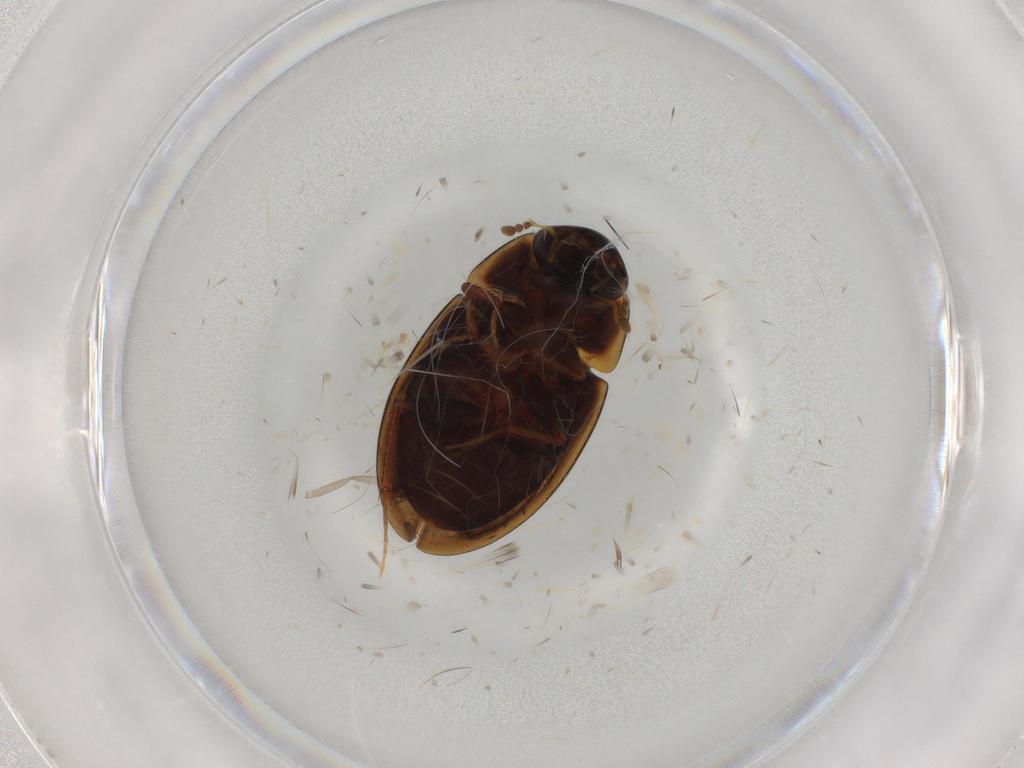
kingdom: Animalia
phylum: Arthropoda
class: Insecta
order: Coleoptera
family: Hydrophilidae
